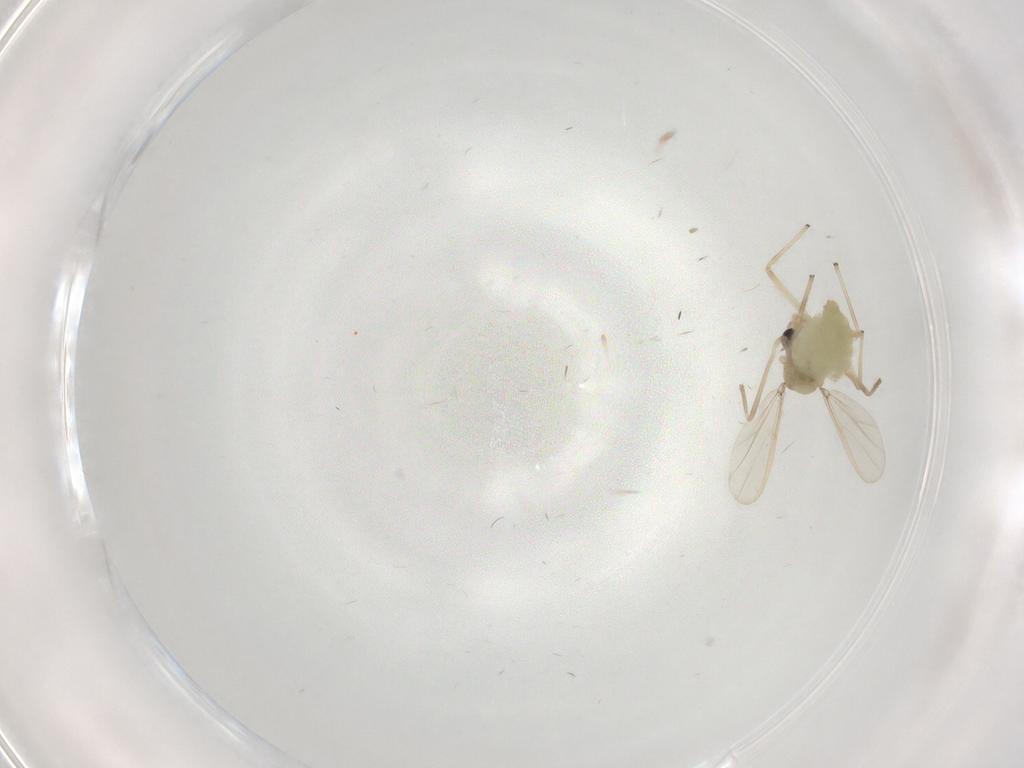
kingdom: Animalia
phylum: Arthropoda
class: Insecta
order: Diptera
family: Chironomidae
